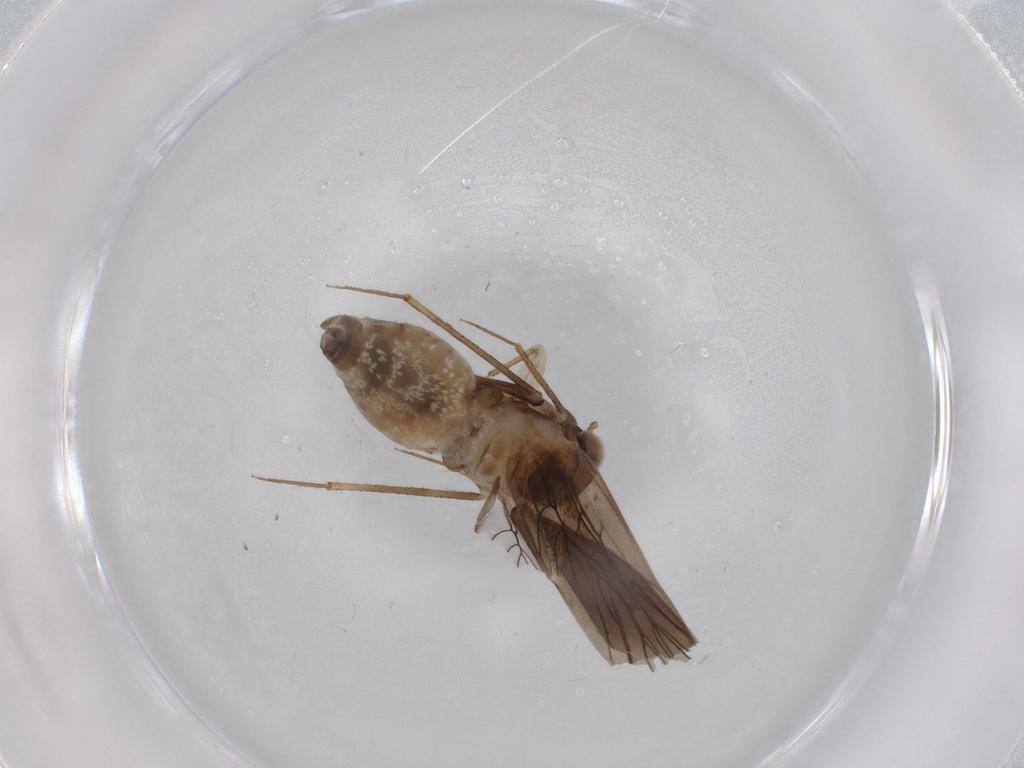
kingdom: Animalia
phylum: Arthropoda
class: Insecta
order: Psocodea
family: Lepidopsocidae
